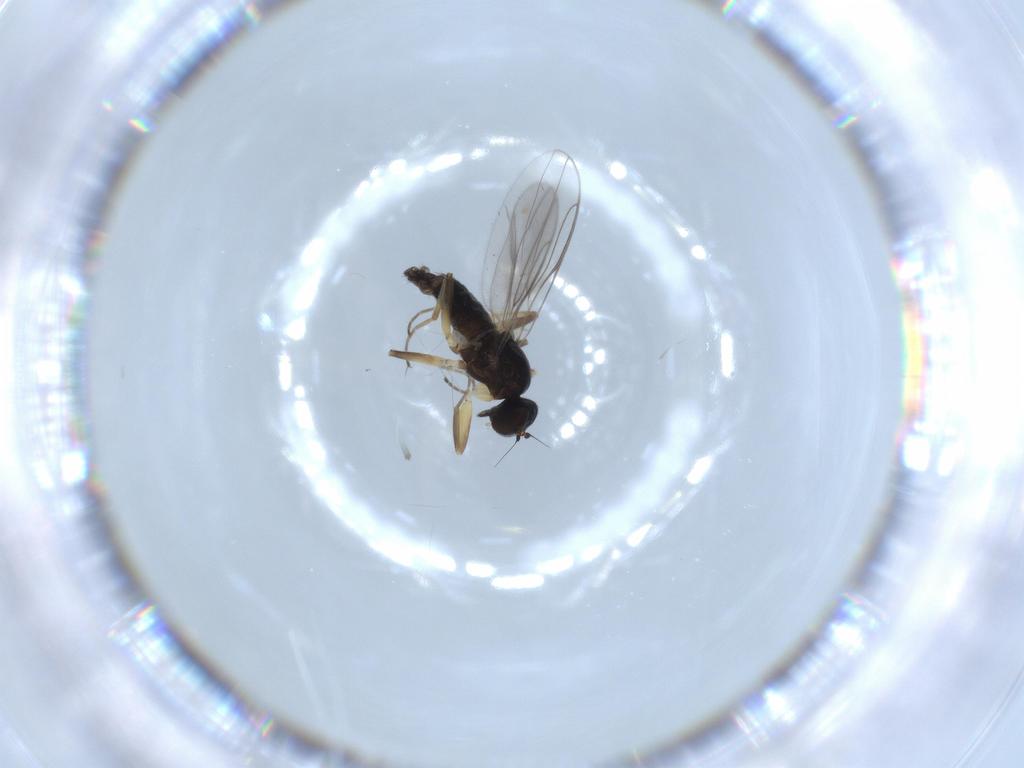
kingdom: Animalia
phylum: Arthropoda
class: Insecta
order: Diptera
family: Hybotidae
